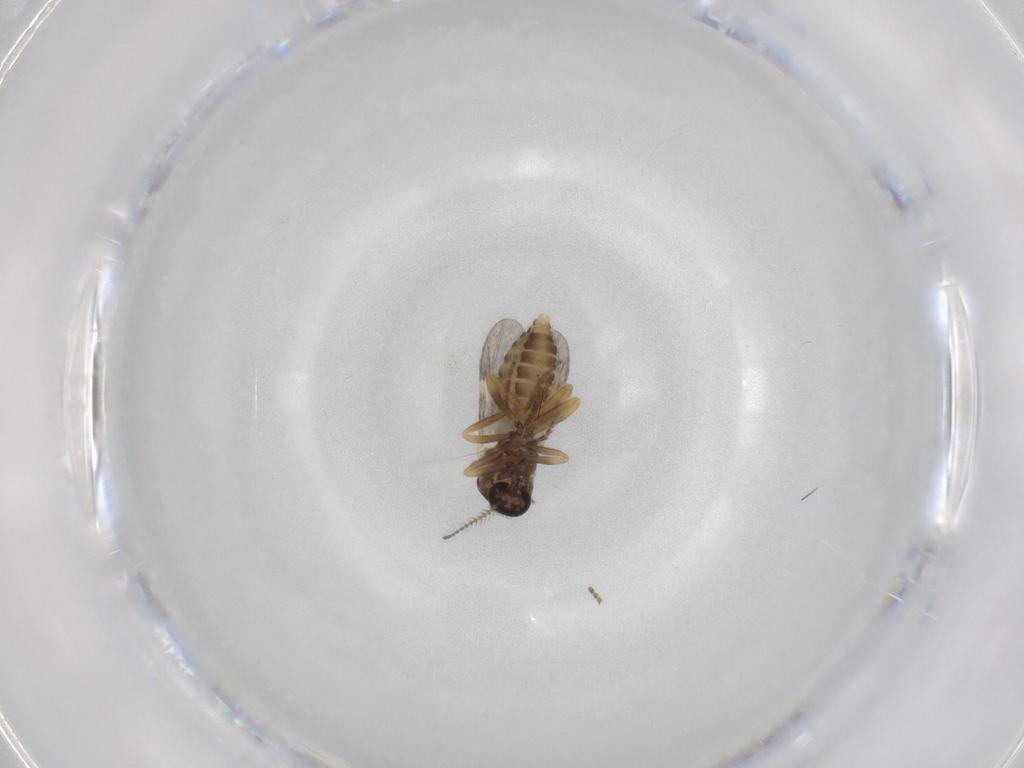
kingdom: Animalia
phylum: Arthropoda
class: Insecta
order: Diptera
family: Ceratopogonidae
